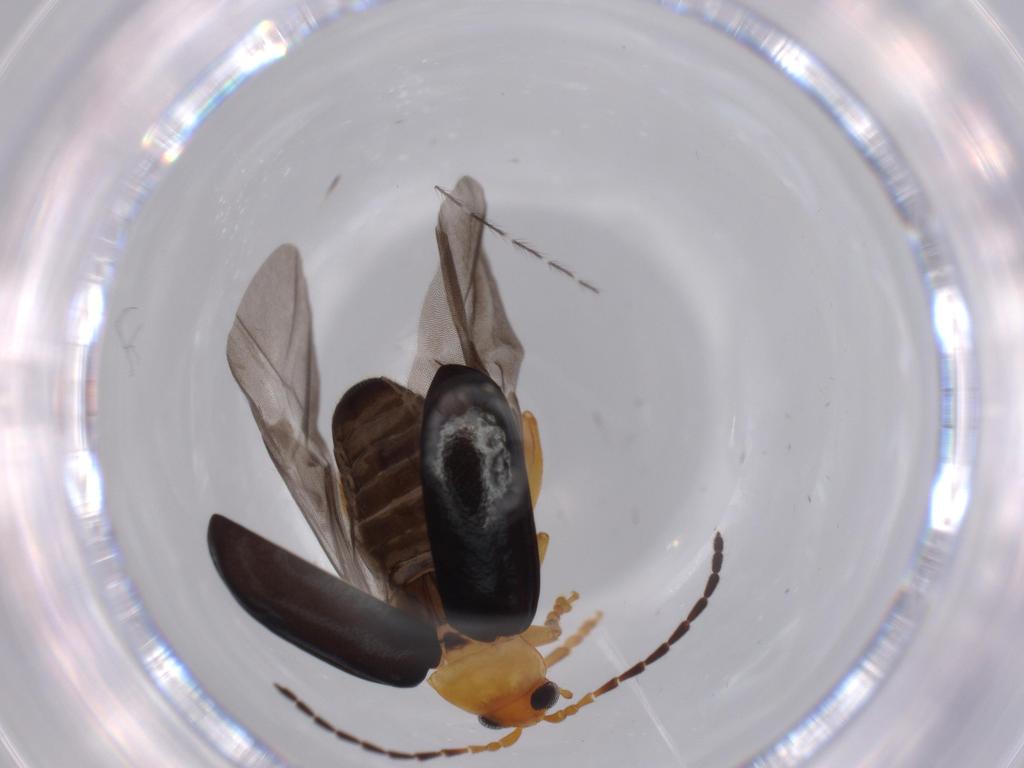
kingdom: Animalia
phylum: Arthropoda
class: Insecta
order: Coleoptera
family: Chrysomelidae
